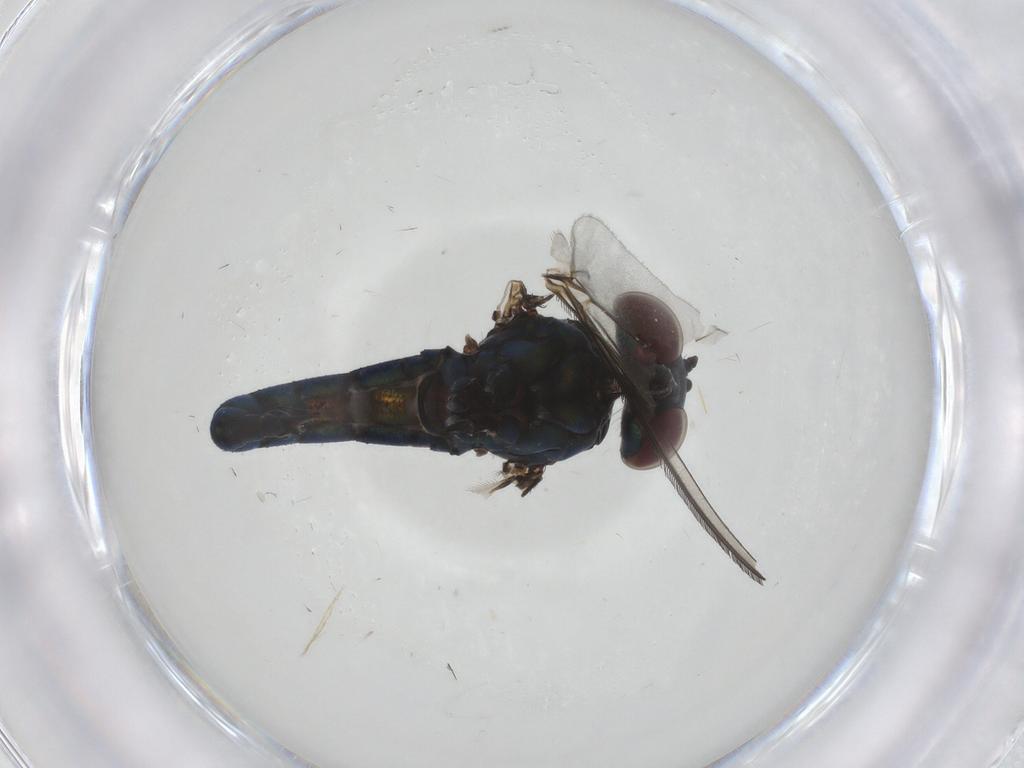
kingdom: Animalia
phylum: Arthropoda
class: Insecta
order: Diptera
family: Dolichopodidae
